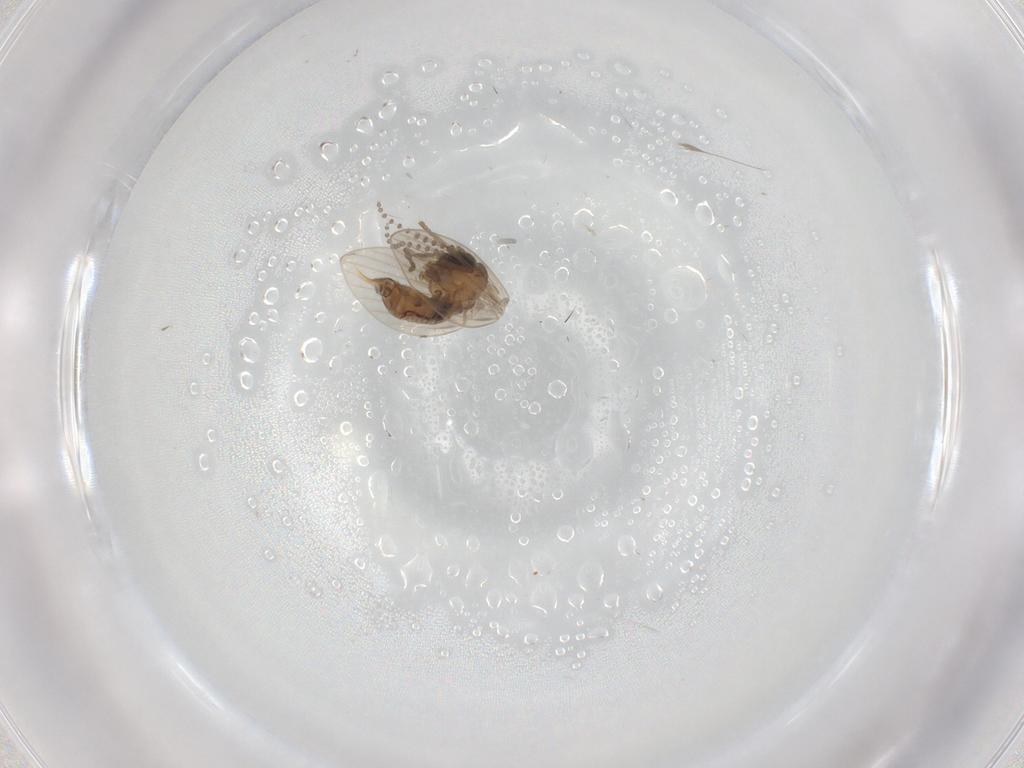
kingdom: Animalia
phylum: Arthropoda
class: Insecta
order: Diptera
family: Psychodidae
